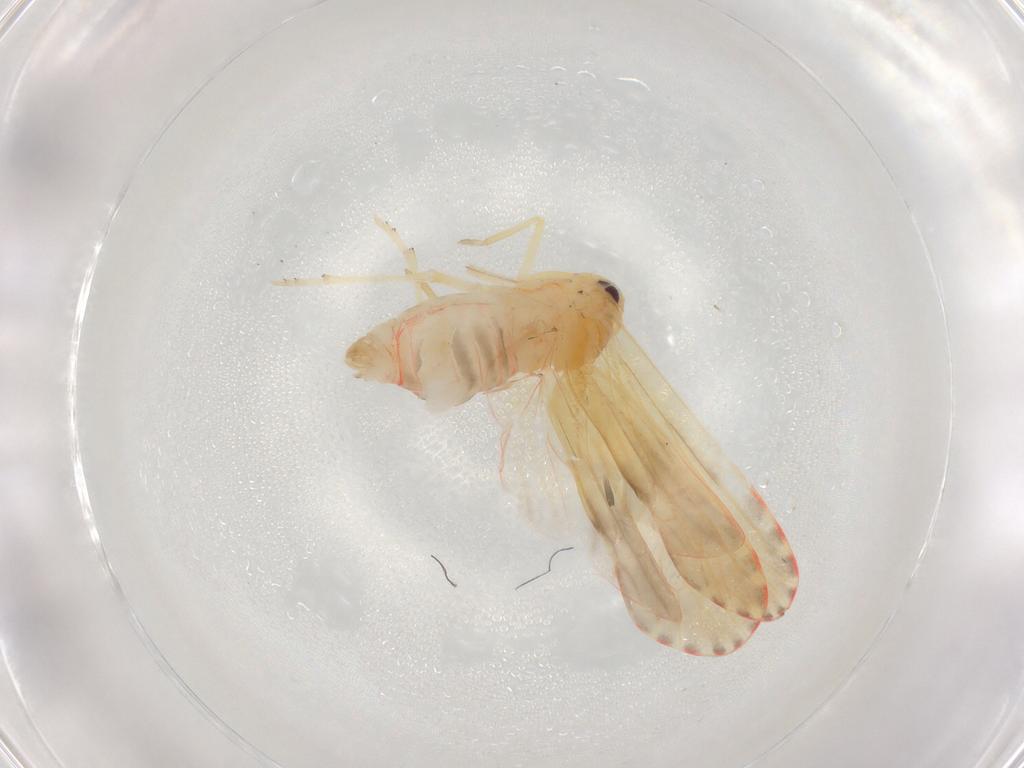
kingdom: Animalia
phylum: Arthropoda
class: Insecta
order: Hemiptera
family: Derbidae
